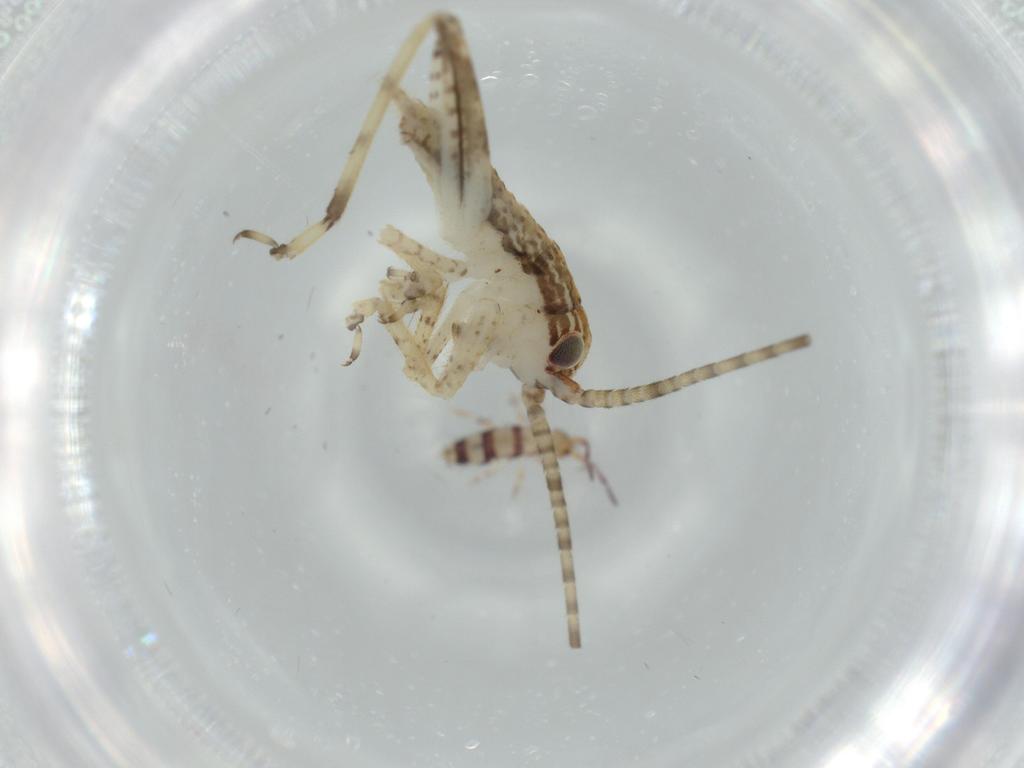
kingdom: Animalia
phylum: Arthropoda
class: Insecta
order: Orthoptera
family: Gryllidae
